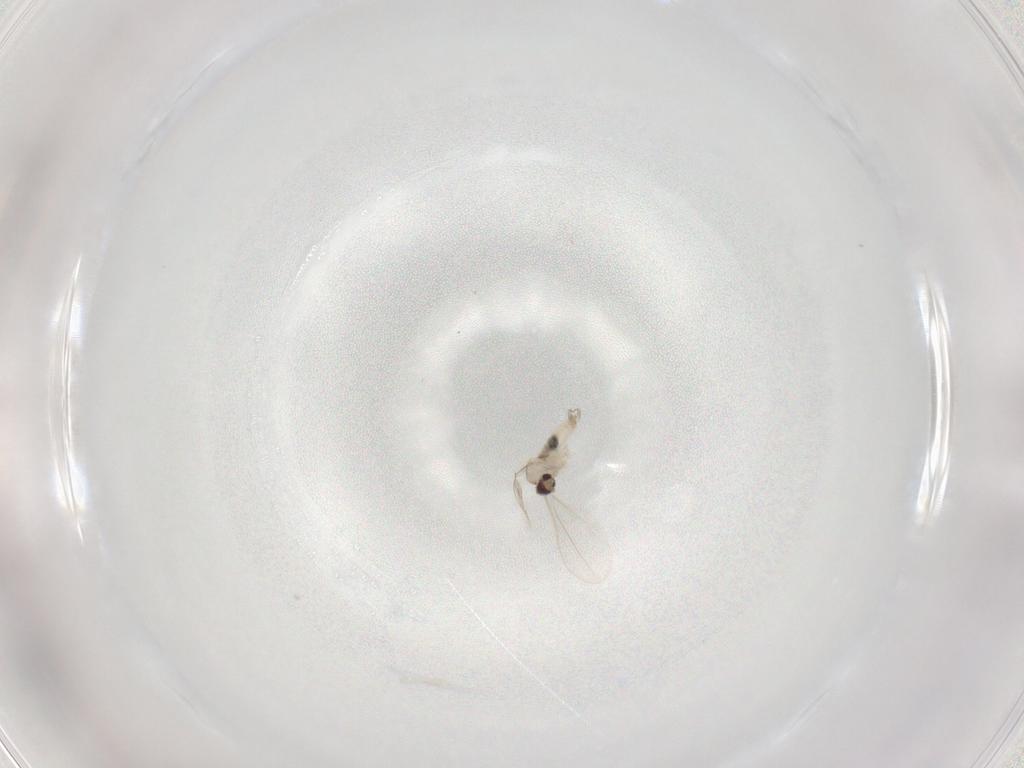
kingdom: Animalia
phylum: Arthropoda
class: Insecta
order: Diptera
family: Cecidomyiidae
